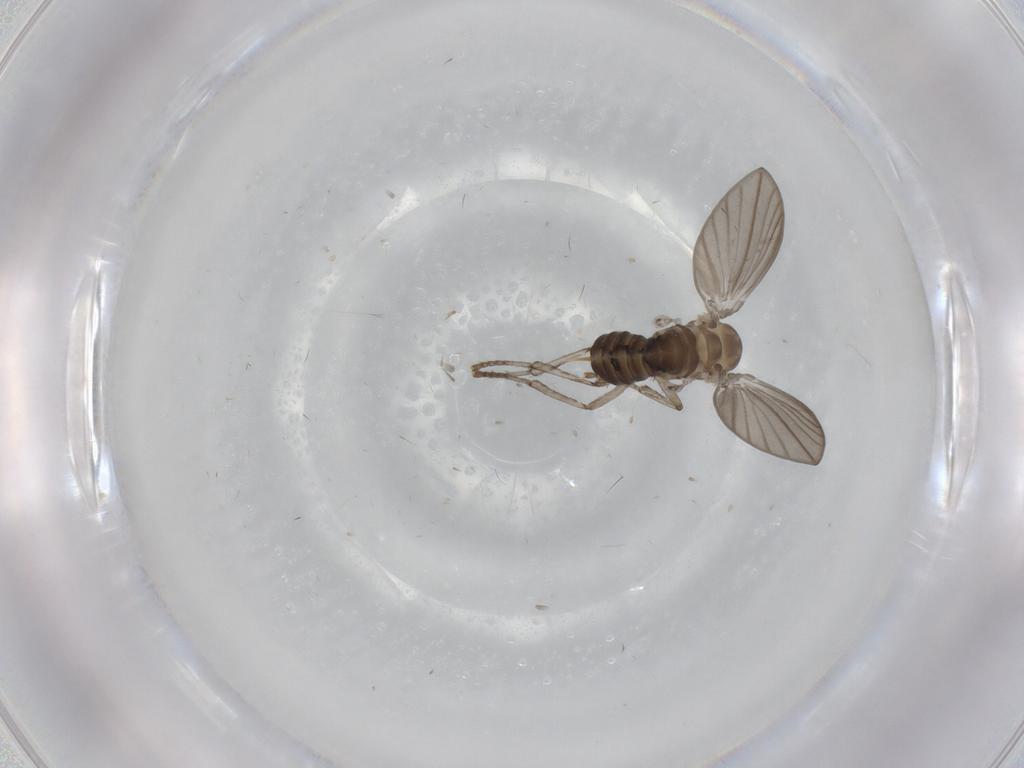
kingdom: Animalia
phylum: Arthropoda
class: Insecta
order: Diptera
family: Phoridae
